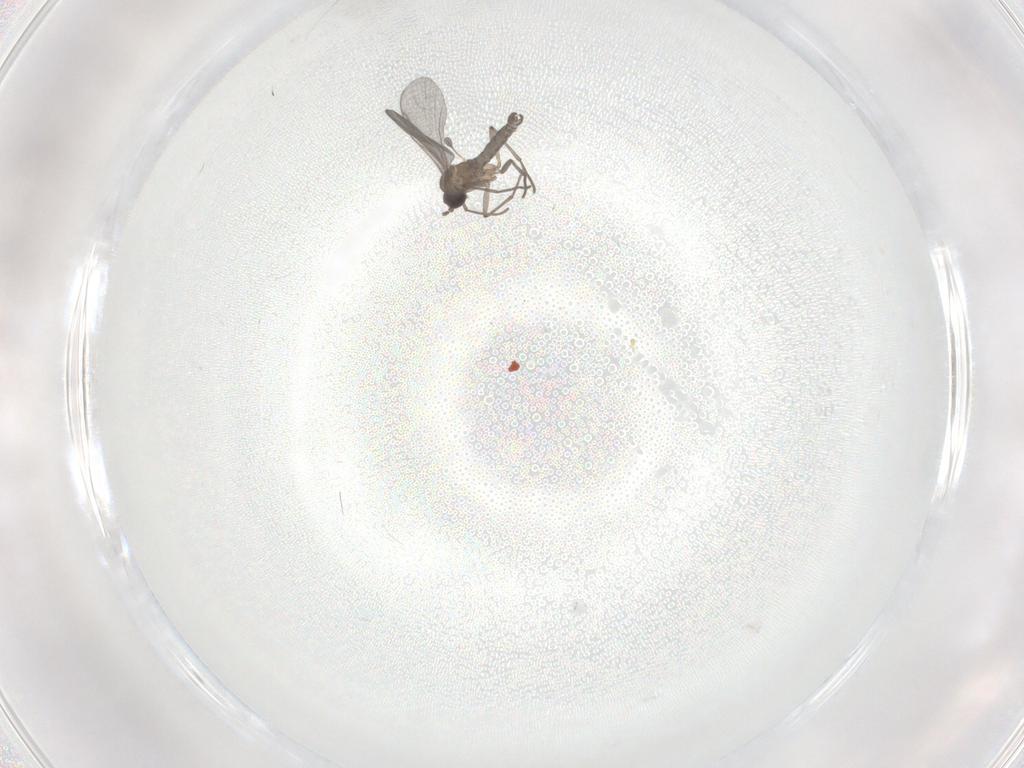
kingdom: Animalia
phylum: Arthropoda
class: Insecta
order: Diptera
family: Sciaridae
